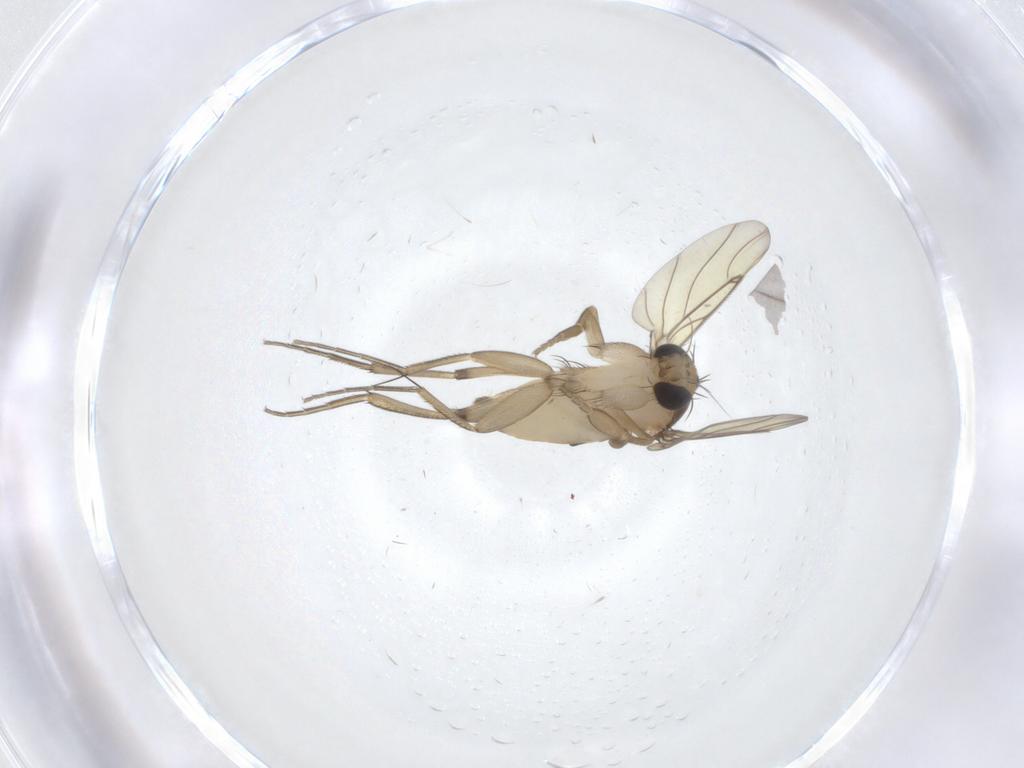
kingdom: Animalia
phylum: Arthropoda
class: Insecta
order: Diptera
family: Phoridae
